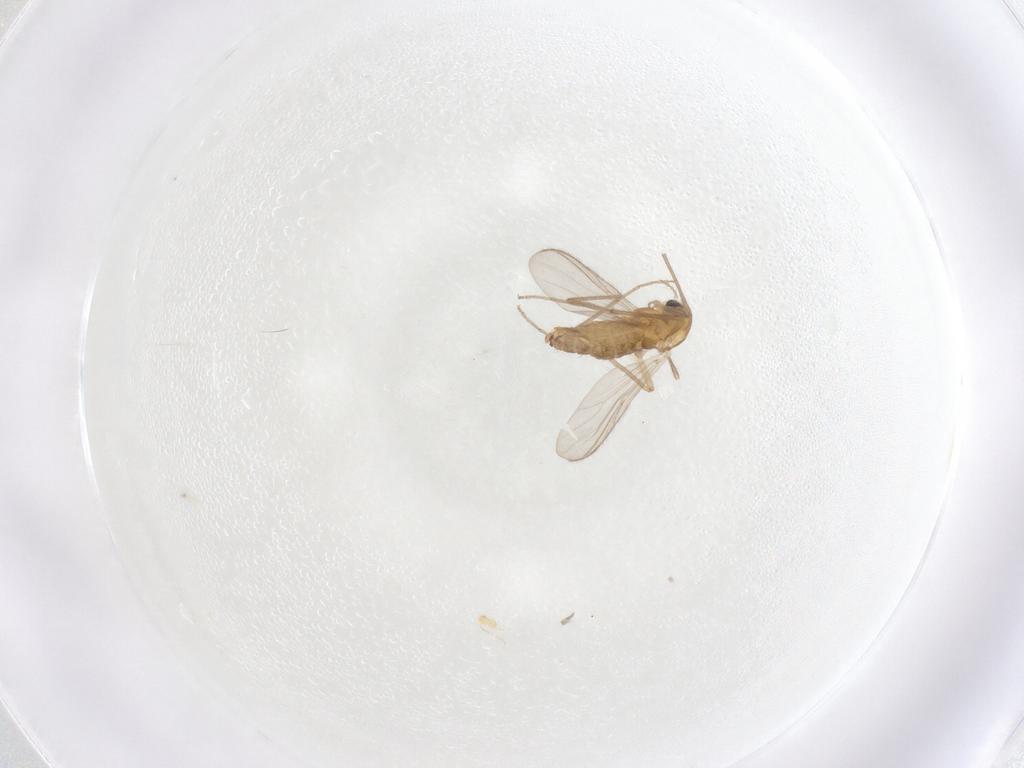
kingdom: Animalia
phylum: Arthropoda
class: Insecta
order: Diptera
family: Chironomidae
